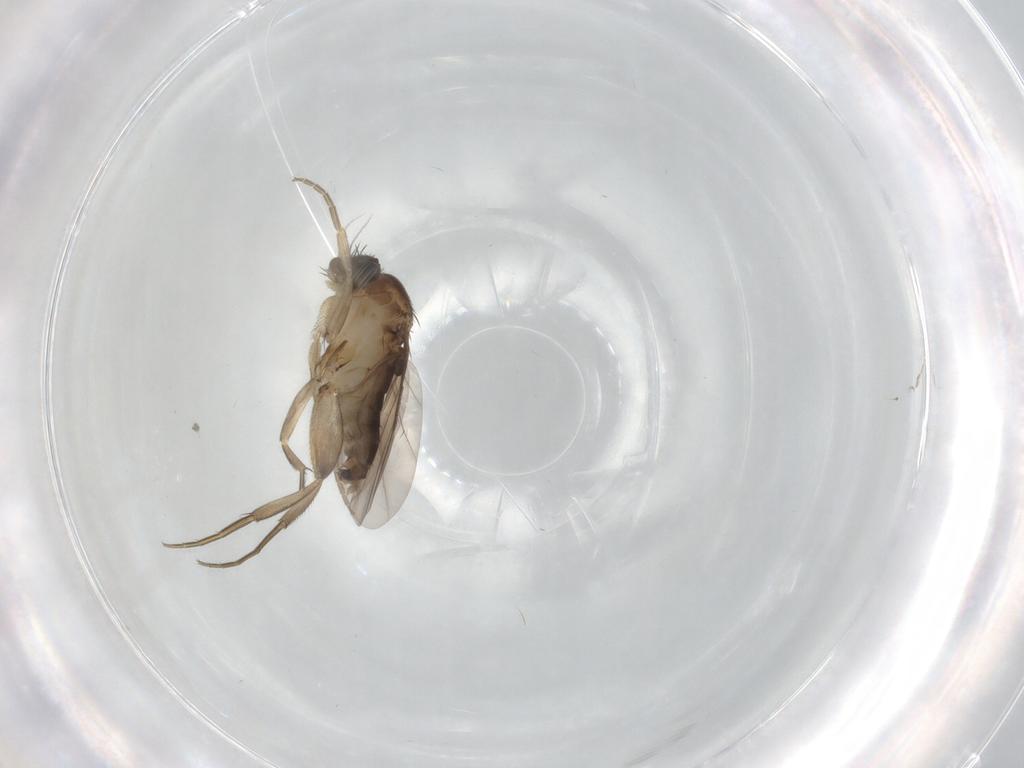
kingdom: Animalia
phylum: Arthropoda
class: Insecta
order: Diptera
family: Phoridae
